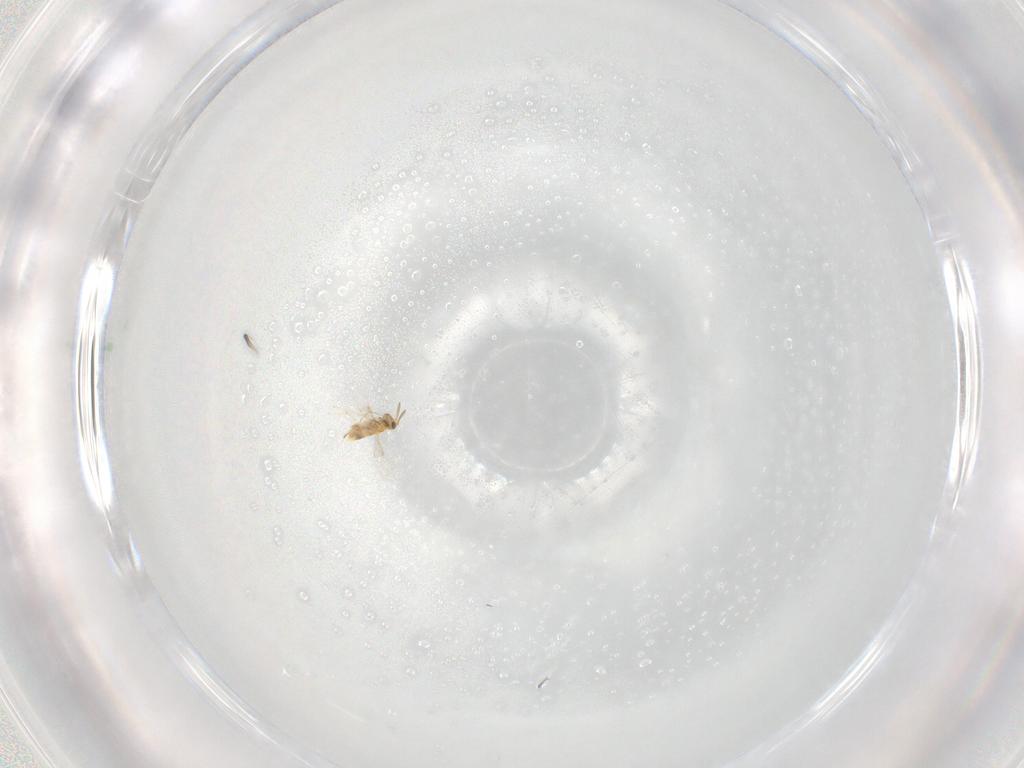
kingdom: Animalia
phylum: Arthropoda
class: Insecta
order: Hymenoptera
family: Aphelinidae
